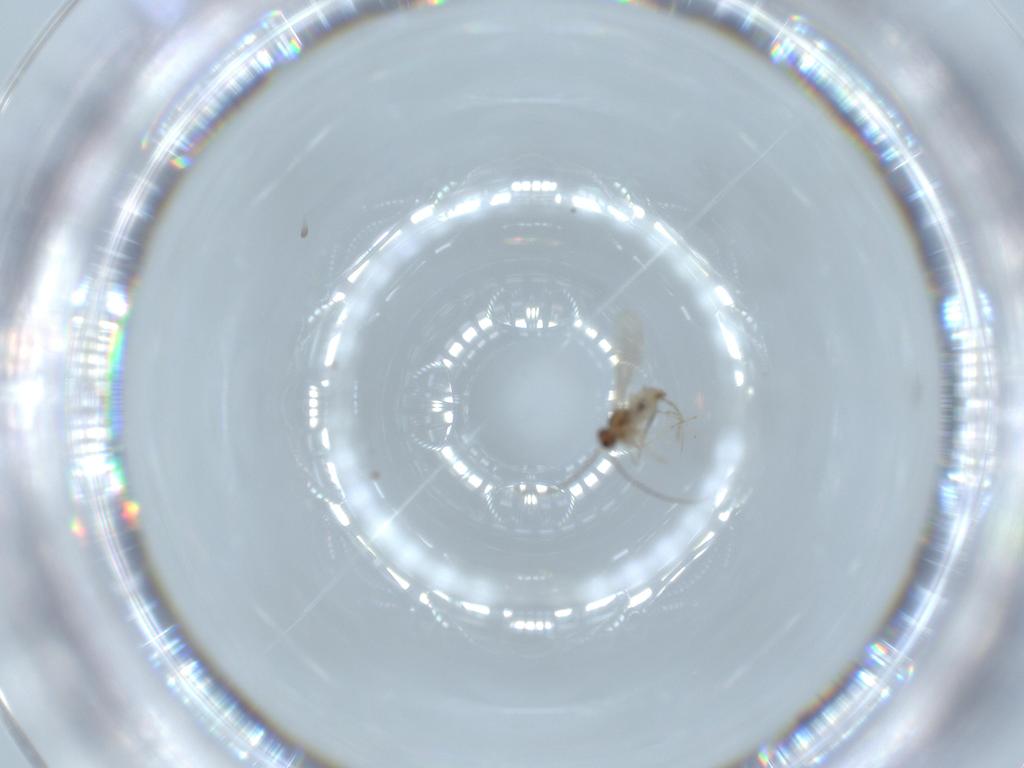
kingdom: Animalia
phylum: Arthropoda
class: Insecta
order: Diptera
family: Cecidomyiidae
